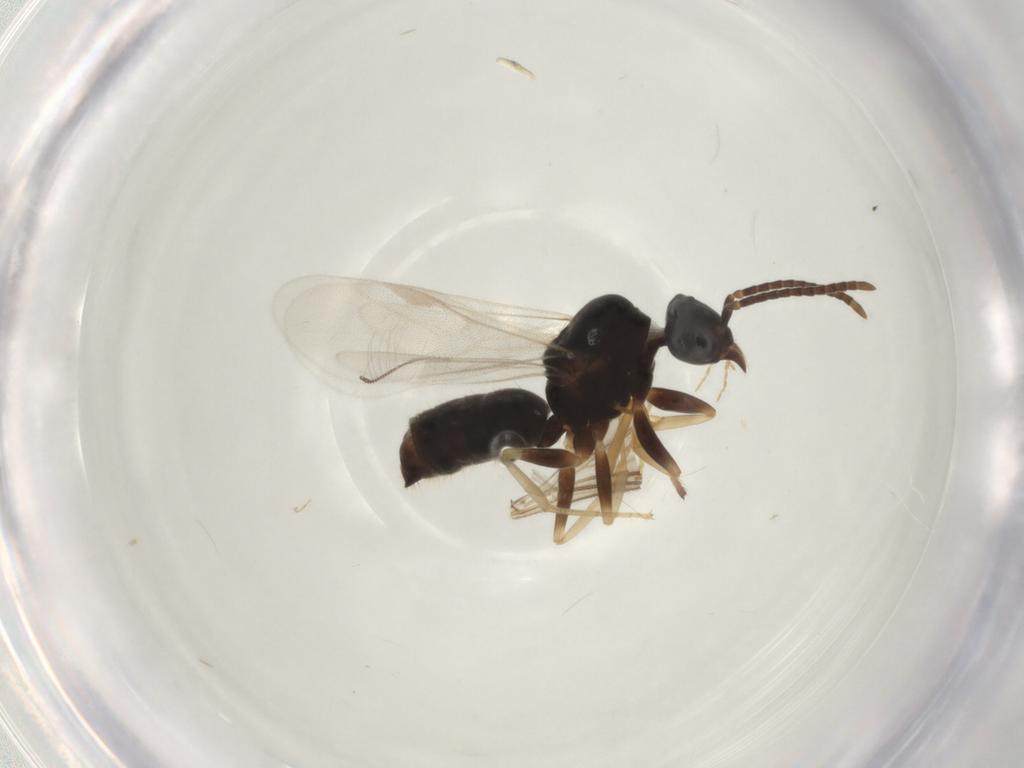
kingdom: Animalia
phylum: Arthropoda
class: Insecta
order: Hymenoptera
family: Formicidae
